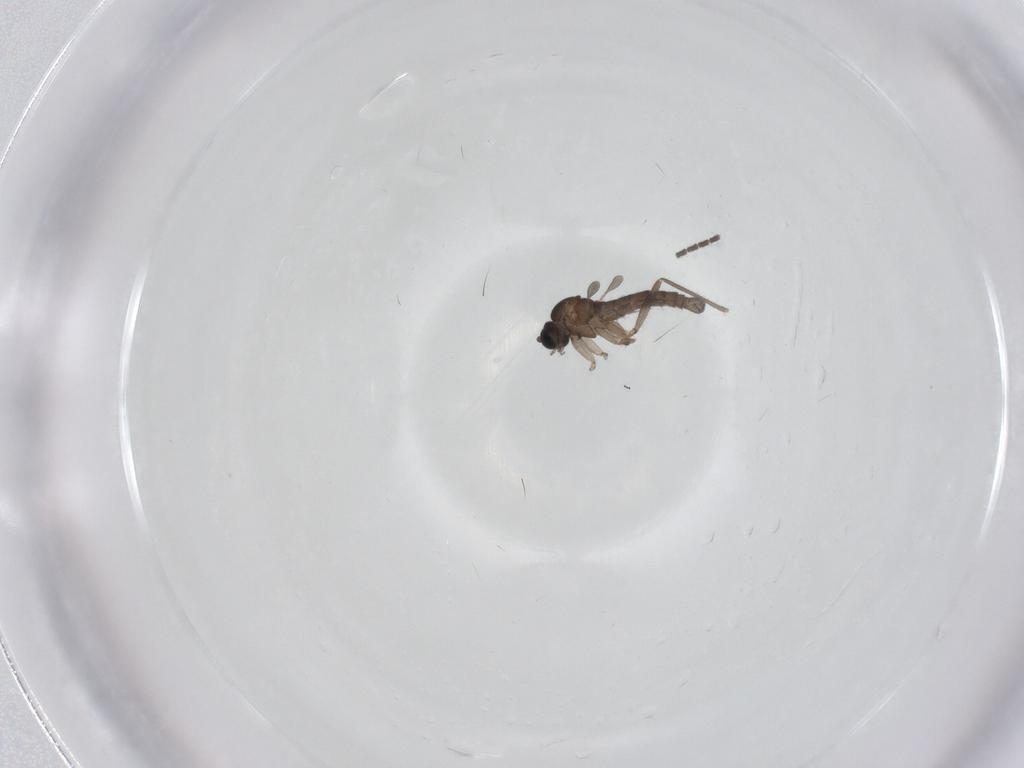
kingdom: Animalia
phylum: Arthropoda
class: Insecta
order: Diptera
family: Sciaridae
